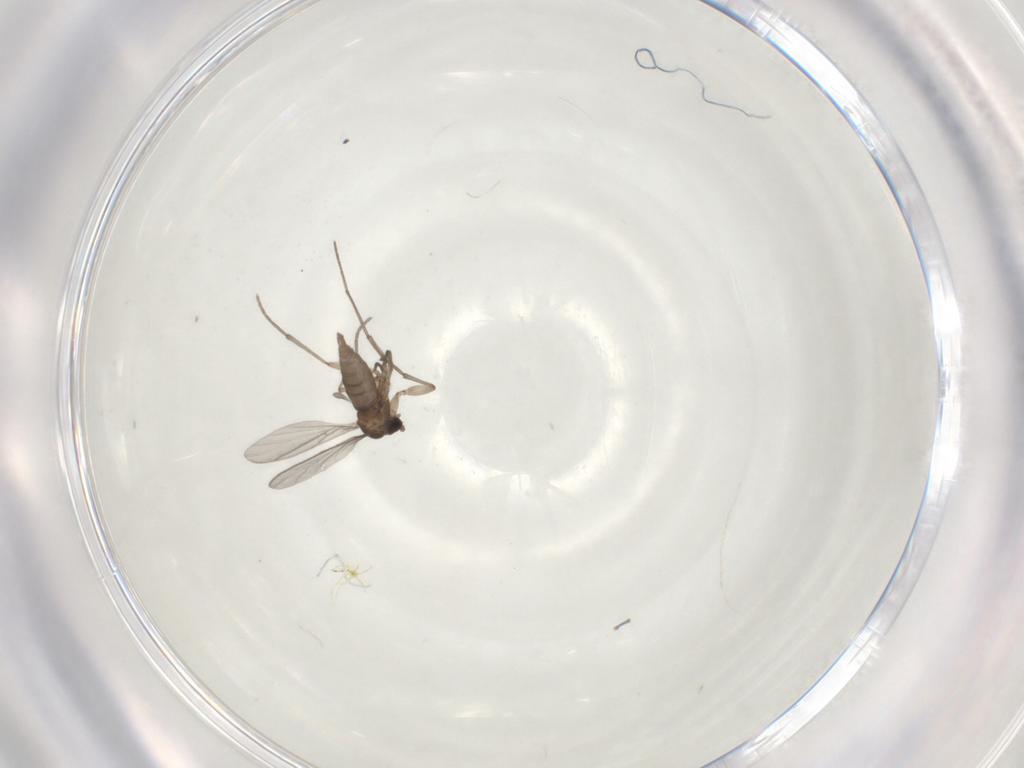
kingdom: Animalia
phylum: Arthropoda
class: Insecta
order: Diptera
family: Sciaridae
